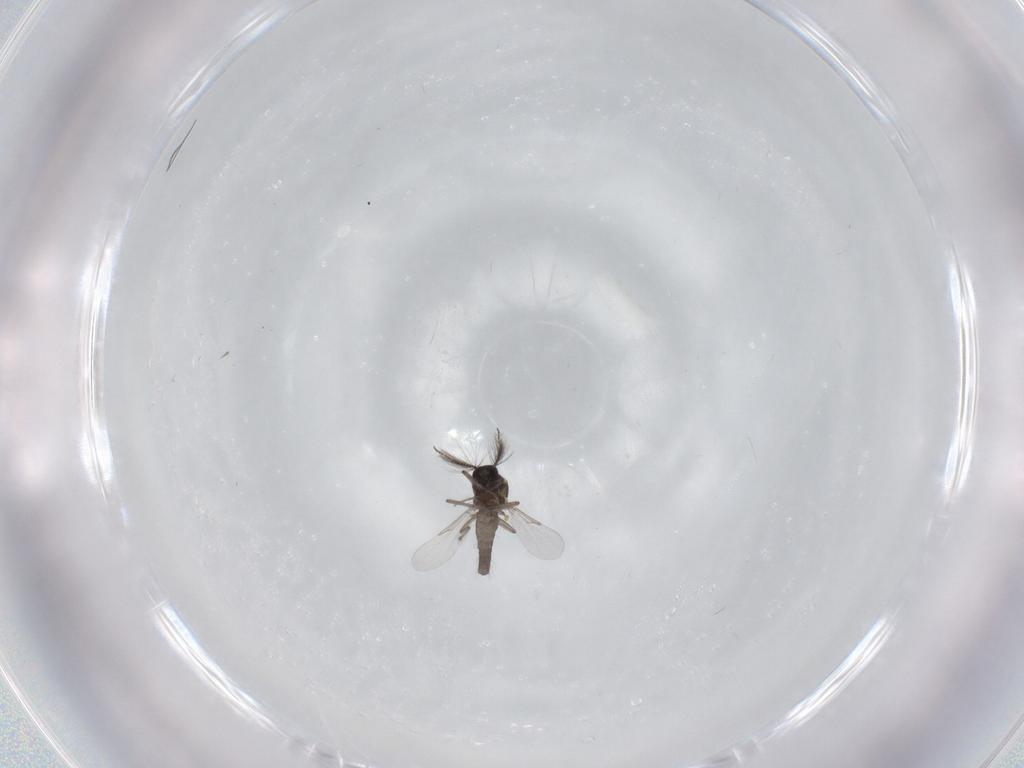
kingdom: Animalia
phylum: Arthropoda
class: Insecta
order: Diptera
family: Ceratopogonidae
